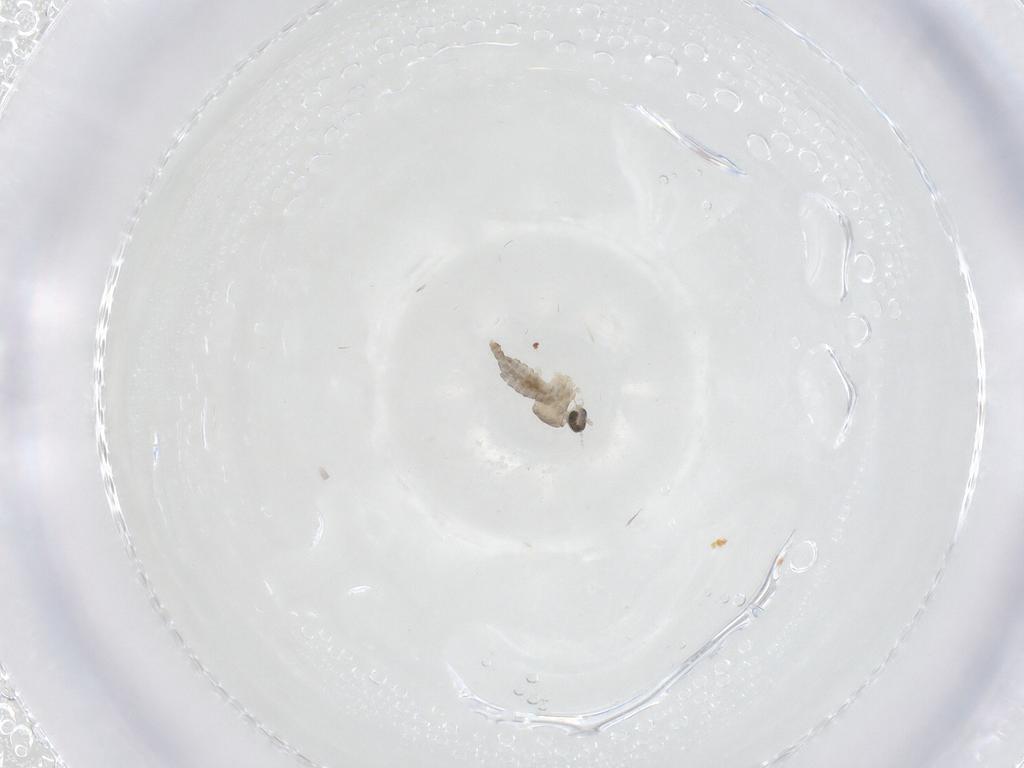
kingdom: Animalia
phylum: Arthropoda
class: Insecta
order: Diptera
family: Cecidomyiidae
